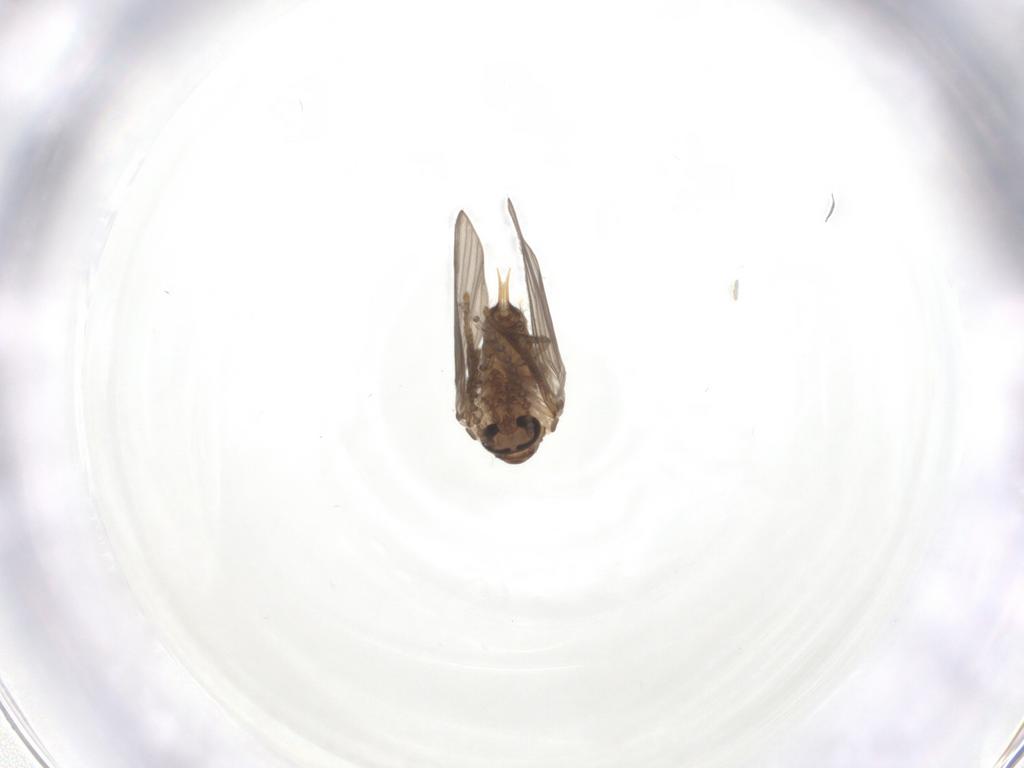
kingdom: Animalia
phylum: Arthropoda
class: Insecta
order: Diptera
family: Psychodidae
